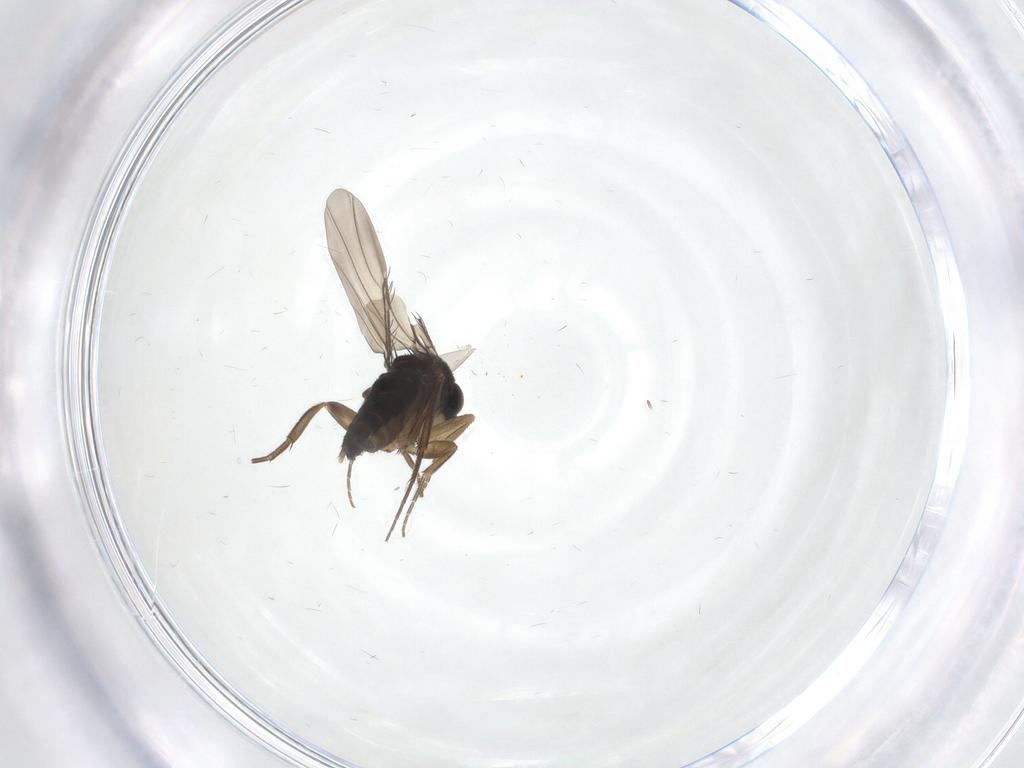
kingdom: Animalia
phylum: Arthropoda
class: Insecta
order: Diptera
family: Phoridae
